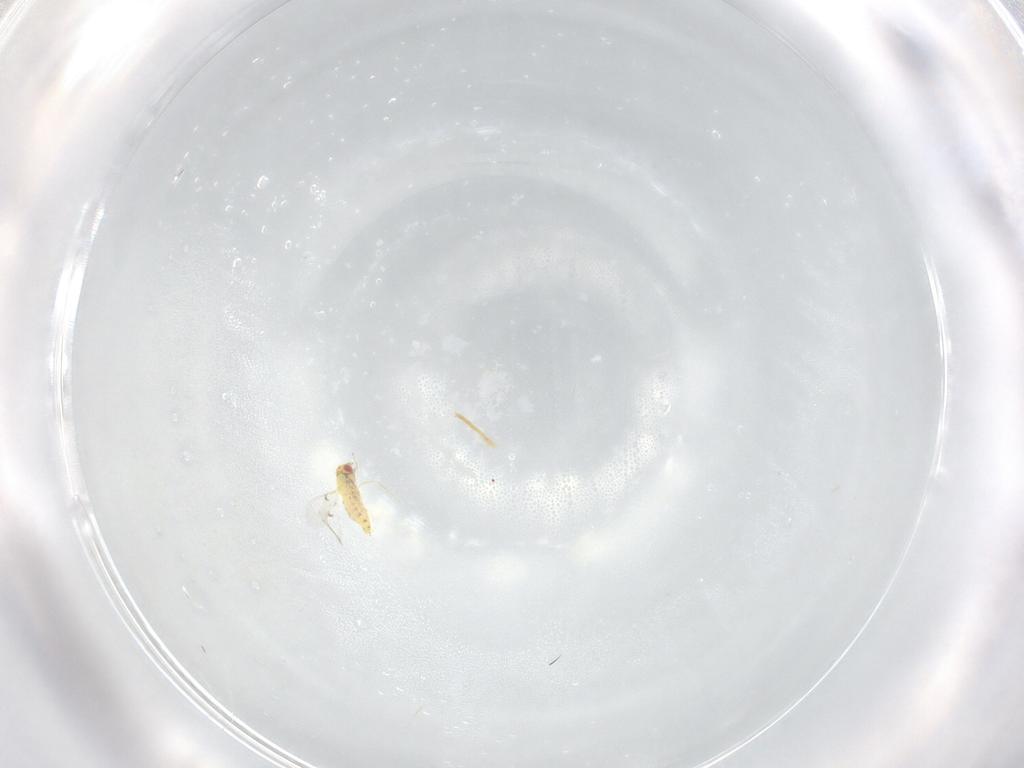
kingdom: Animalia
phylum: Arthropoda
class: Insecta
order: Hymenoptera
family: Trichogrammatidae
